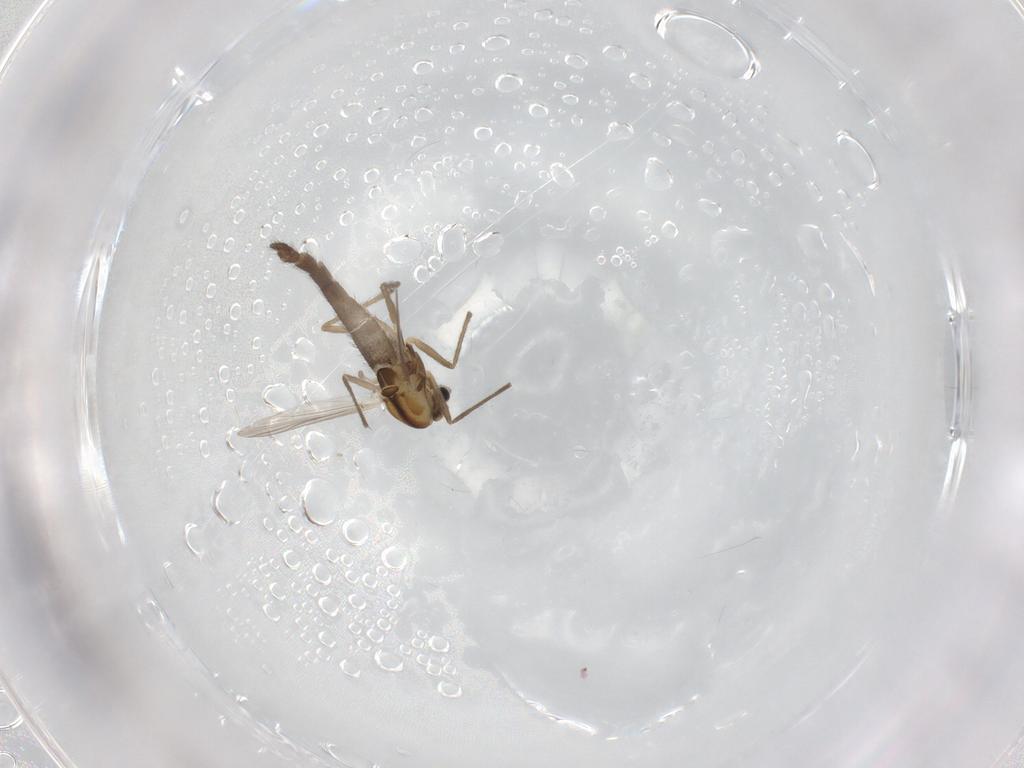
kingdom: Animalia
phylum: Arthropoda
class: Insecta
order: Diptera
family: Chironomidae
